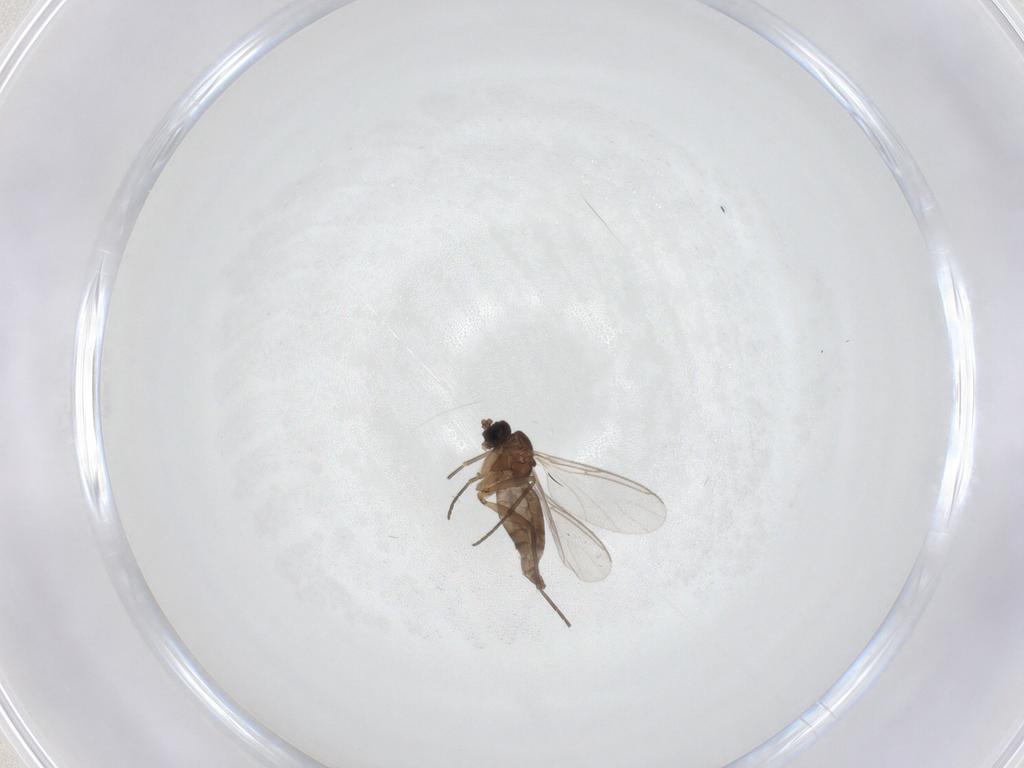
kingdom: Animalia
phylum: Arthropoda
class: Insecta
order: Diptera
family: Sciaridae
